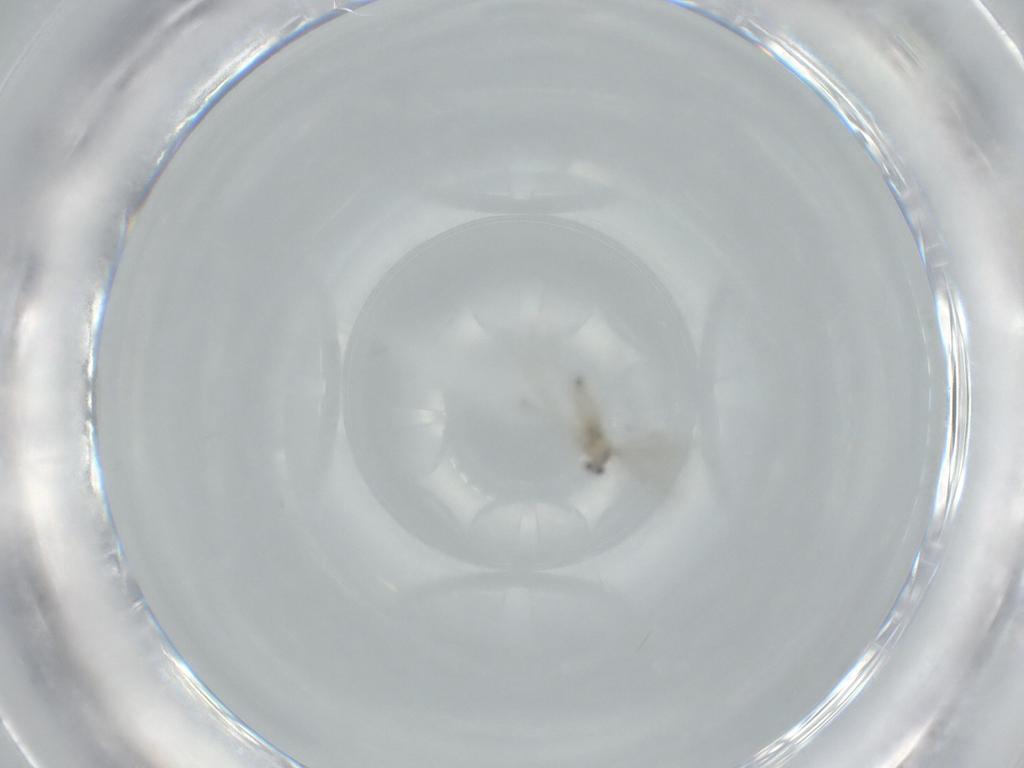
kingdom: Animalia
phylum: Arthropoda
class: Insecta
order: Diptera
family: Cecidomyiidae
